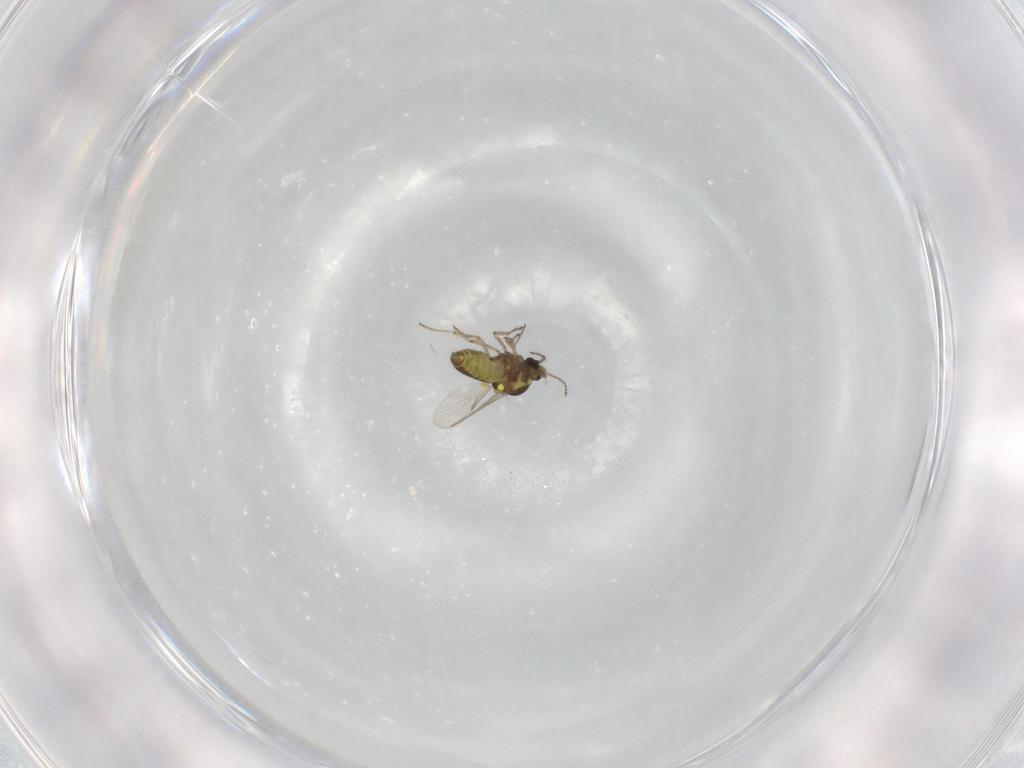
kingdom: Animalia
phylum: Arthropoda
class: Insecta
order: Diptera
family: Ceratopogonidae
